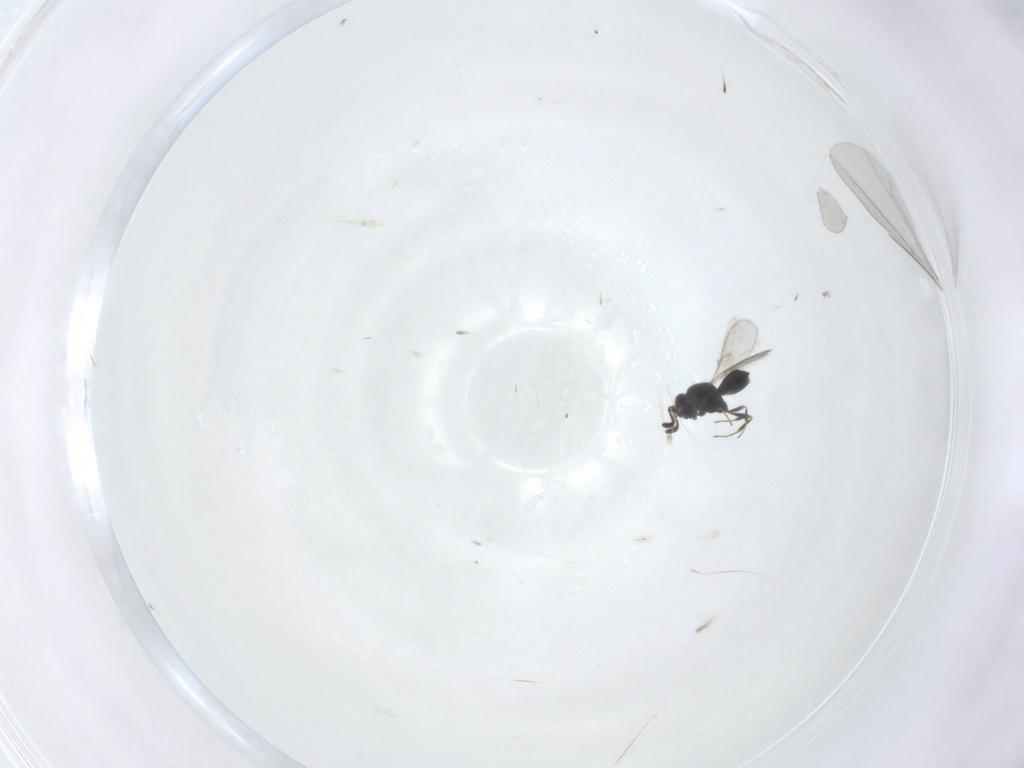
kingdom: Animalia
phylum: Arthropoda
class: Insecta
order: Hymenoptera
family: Scelionidae
